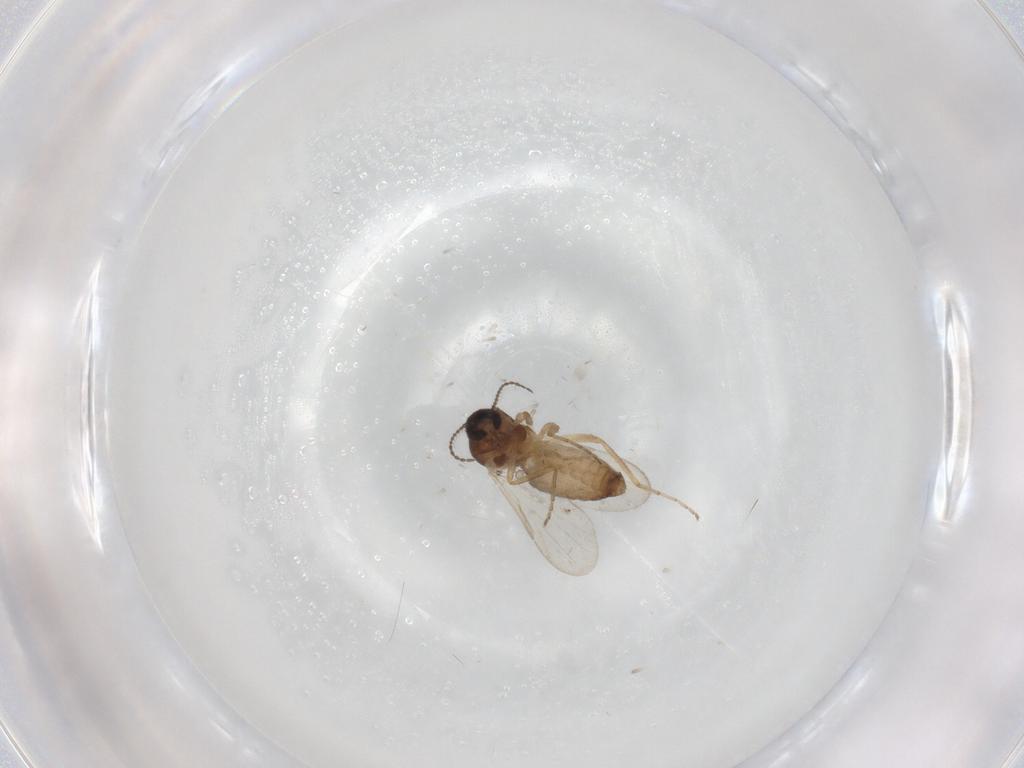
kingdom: Animalia
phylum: Arthropoda
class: Insecta
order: Diptera
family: Ceratopogonidae
